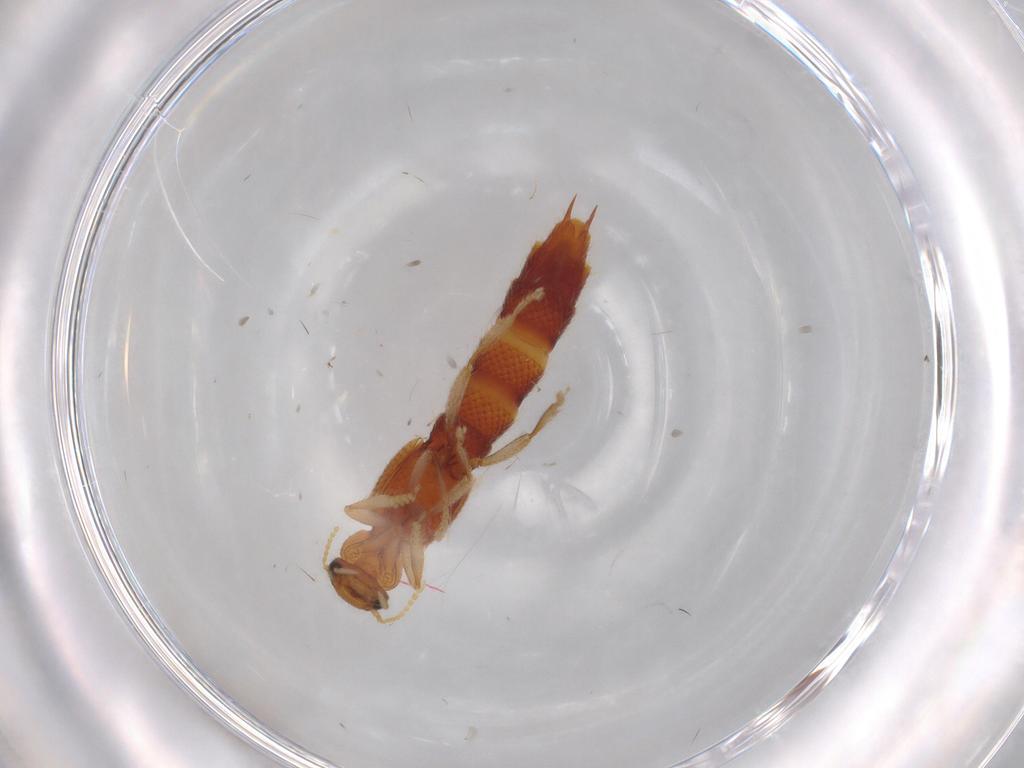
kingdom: Animalia
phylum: Arthropoda
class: Insecta
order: Coleoptera
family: Staphylinidae
